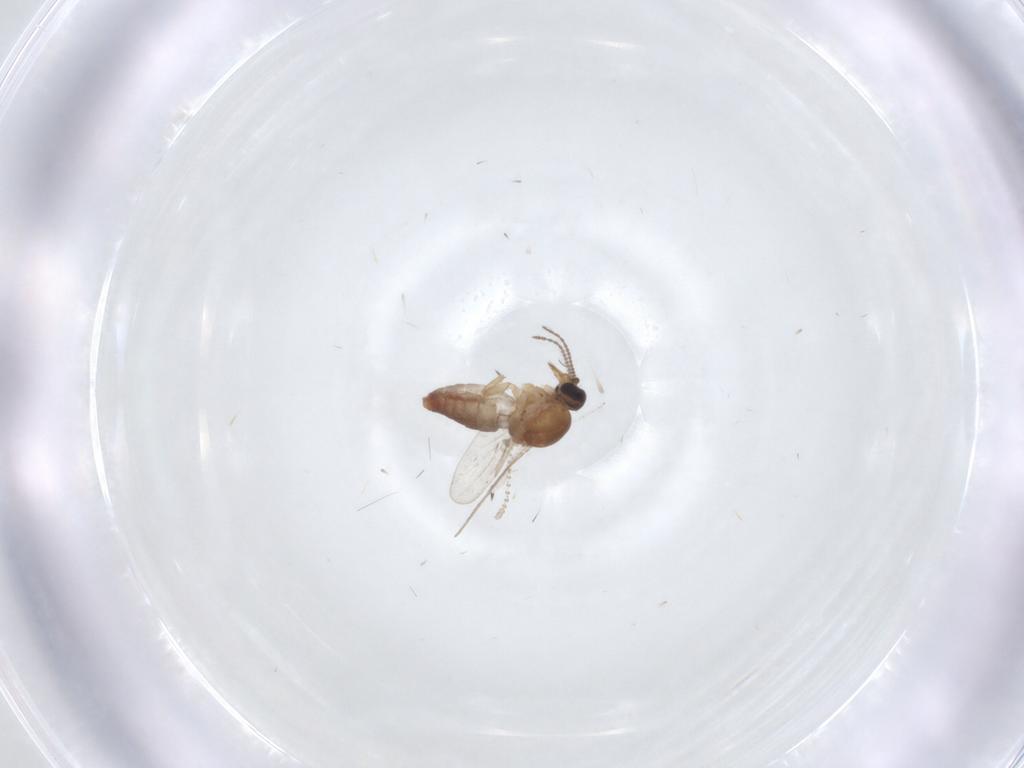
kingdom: Animalia
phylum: Arthropoda
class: Insecta
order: Diptera
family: Ceratopogonidae
